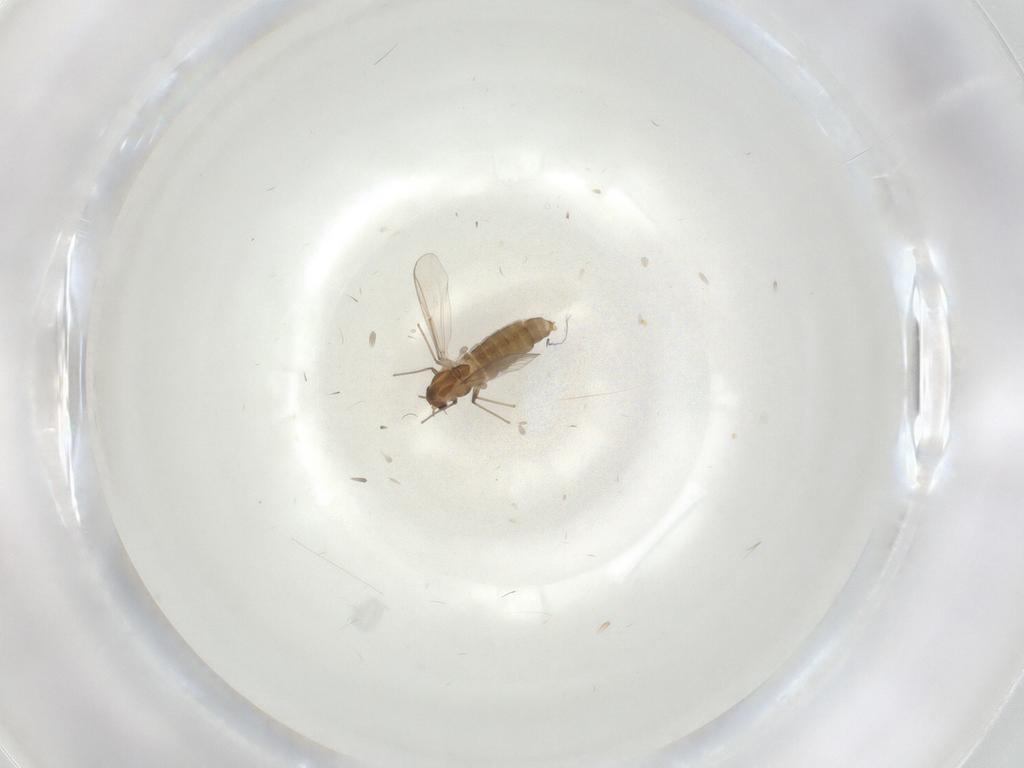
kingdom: Animalia
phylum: Arthropoda
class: Insecta
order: Diptera
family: Chironomidae
